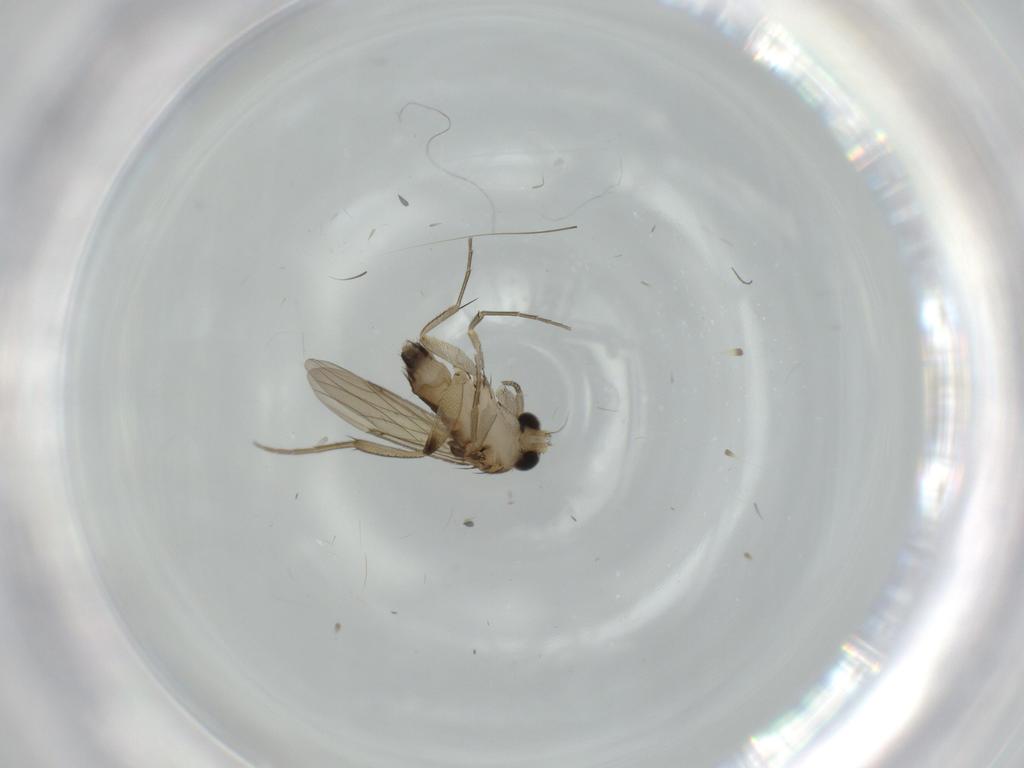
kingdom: Animalia
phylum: Arthropoda
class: Insecta
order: Diptera
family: Phoridae
